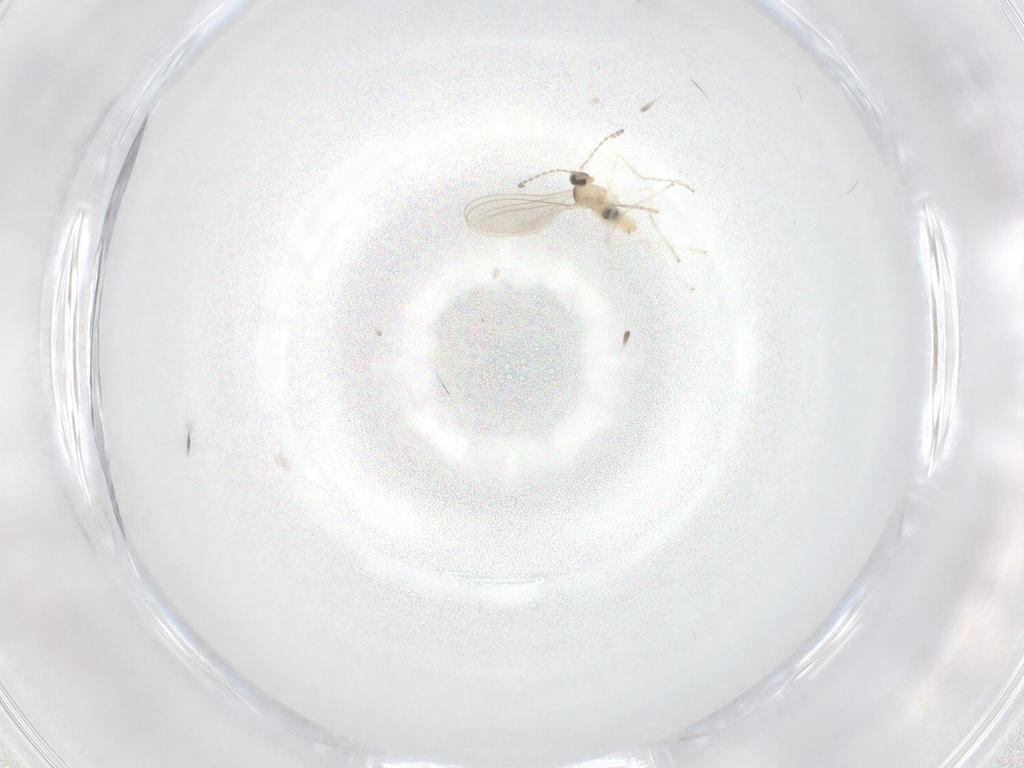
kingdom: Animalia
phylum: Arthropoda
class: Insecta
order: Diptera
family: Cecidomyiidae
